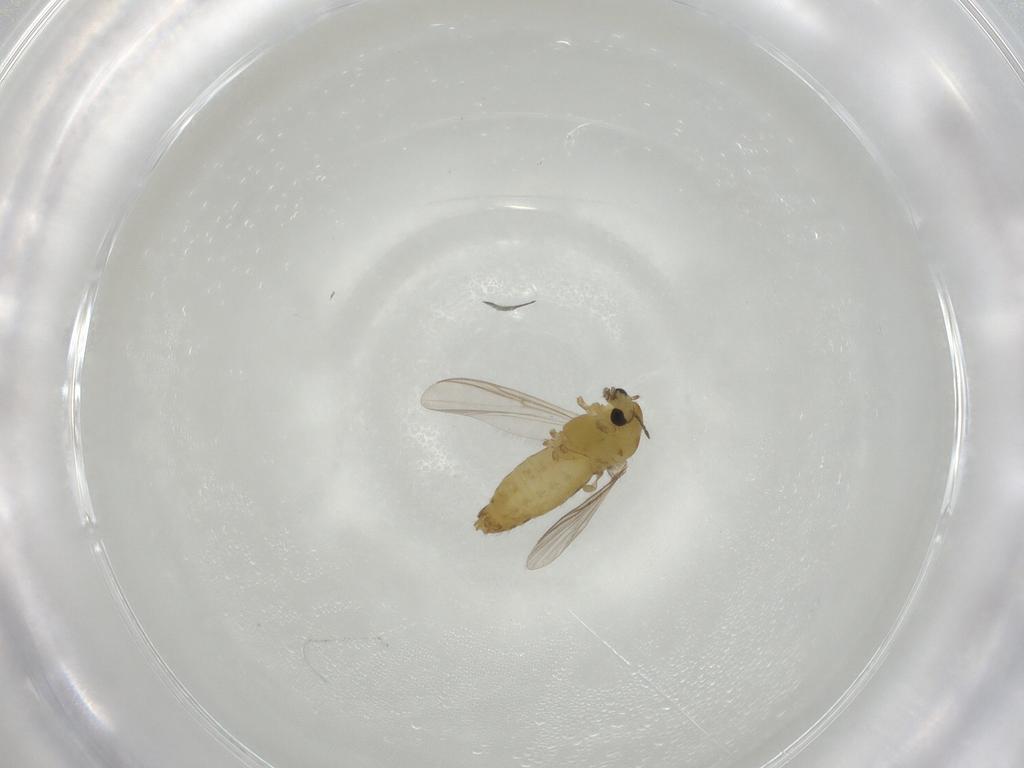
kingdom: Animalia
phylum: Arthropoda
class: Insecta
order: Diptera
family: Chironomidae
